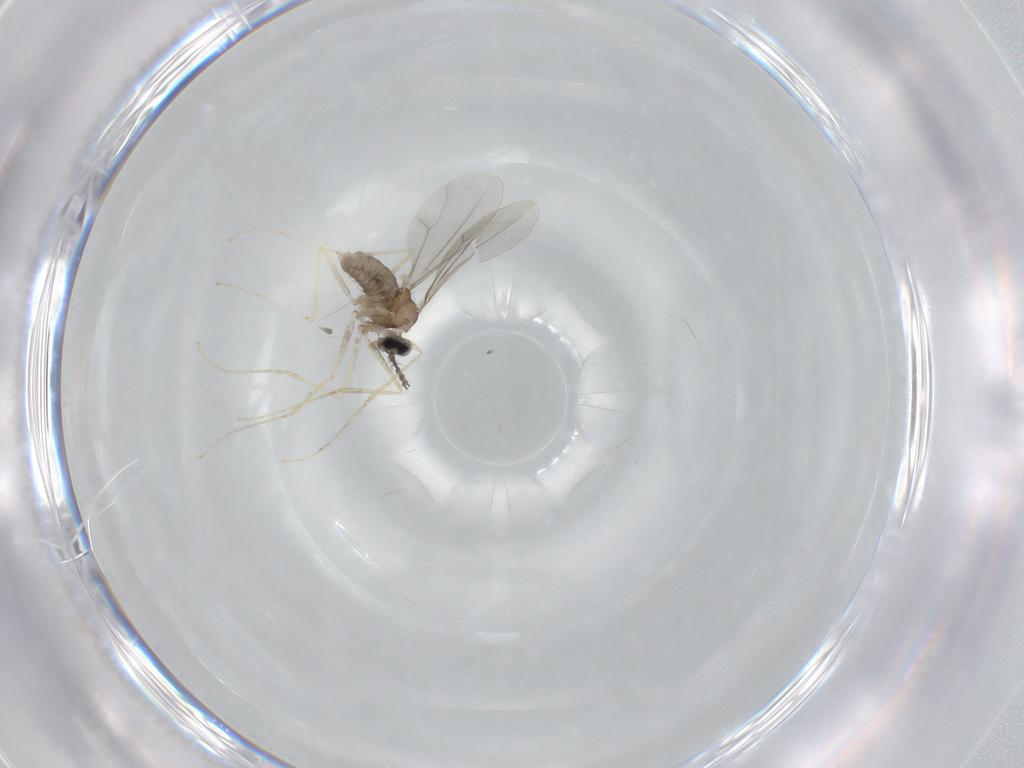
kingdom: Animalia
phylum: Arthropoda
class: Insecta
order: Diptera
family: Cecidomyiidae
